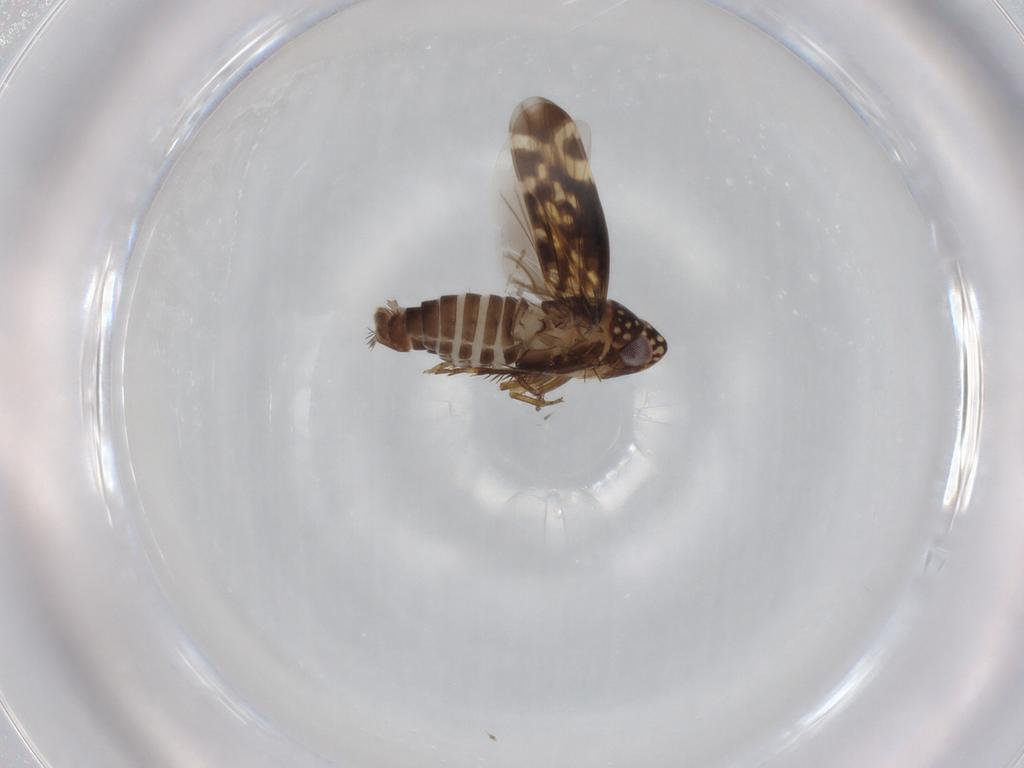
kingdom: Animalia
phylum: Arthropoda
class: Insecta
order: Hemiptera
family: Cicadellidae
